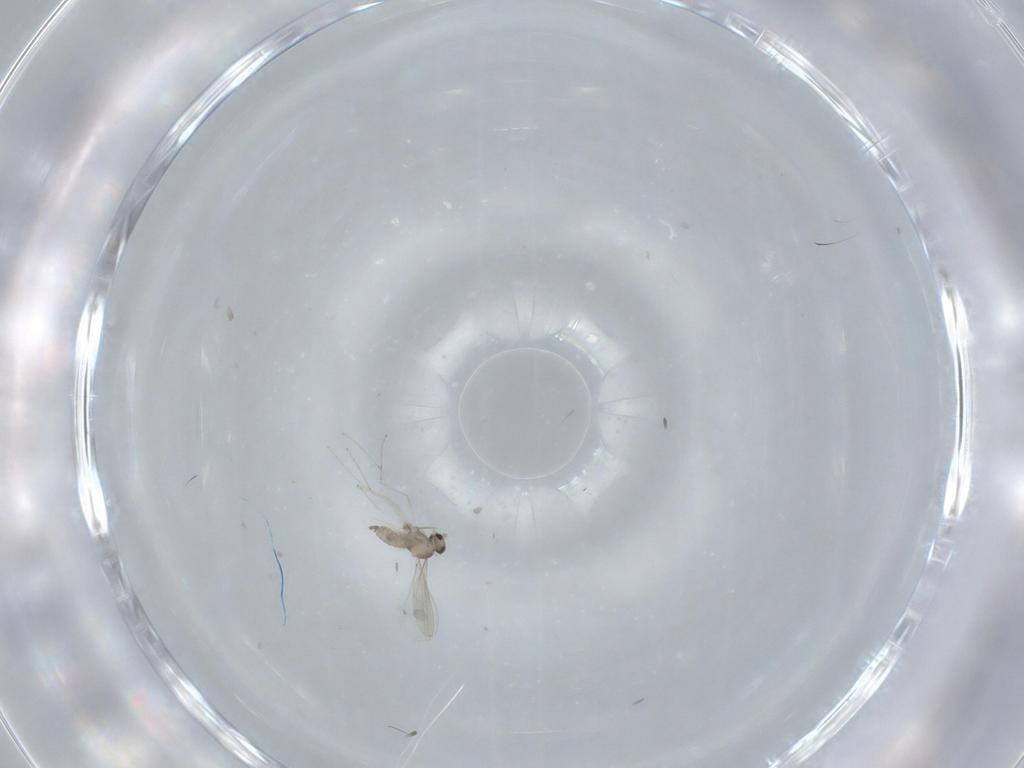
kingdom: Animalia
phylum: Arthropoda
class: Insecta
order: Diptera
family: Cecidomyiidae
